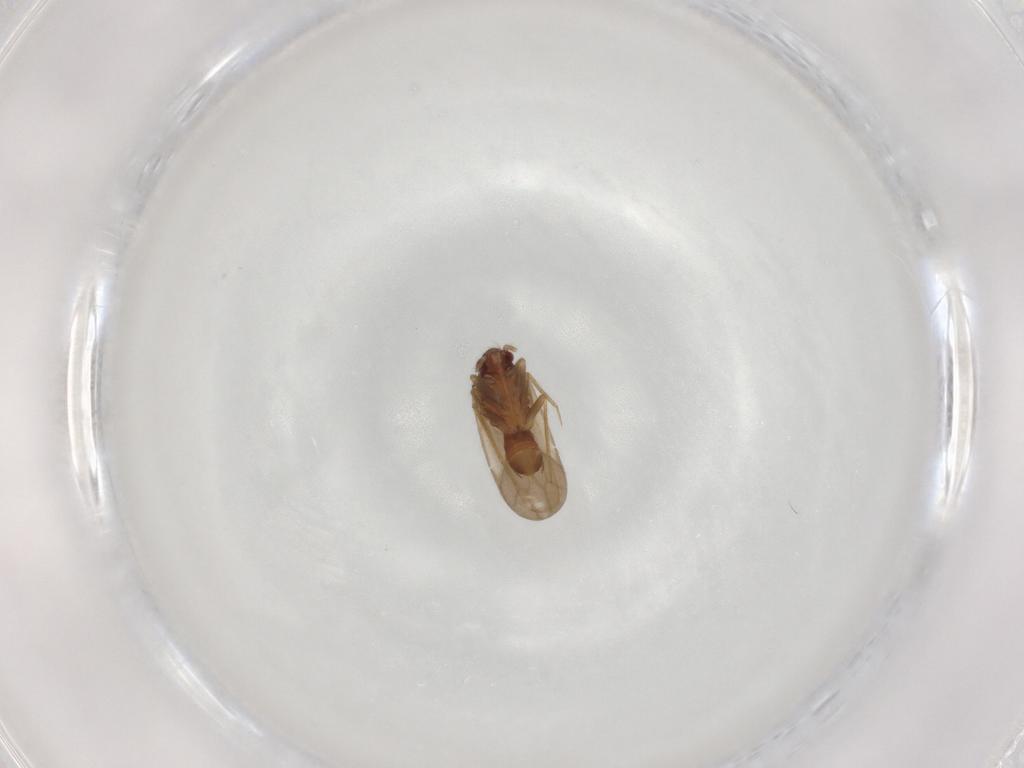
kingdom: Animalia
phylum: Arthropoda
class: Insecta
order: Hemiptera
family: Ceratocombidae
